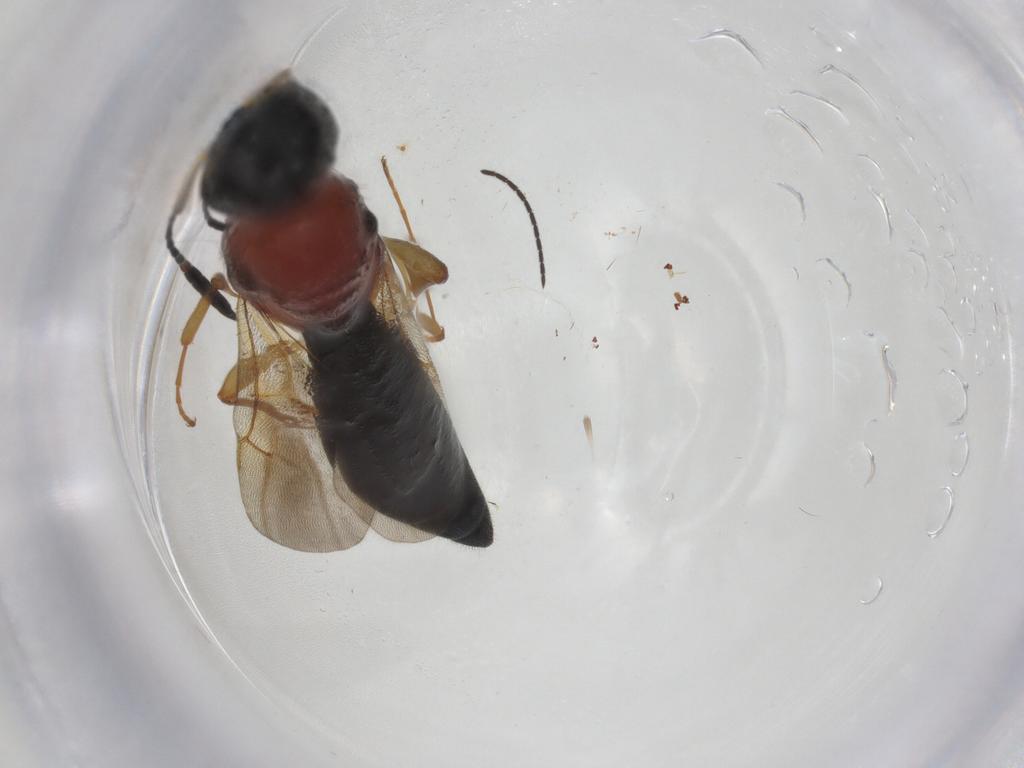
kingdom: Animalia
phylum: Arthropoda
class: Insecta
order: Hymenoptera
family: Scelionidae
